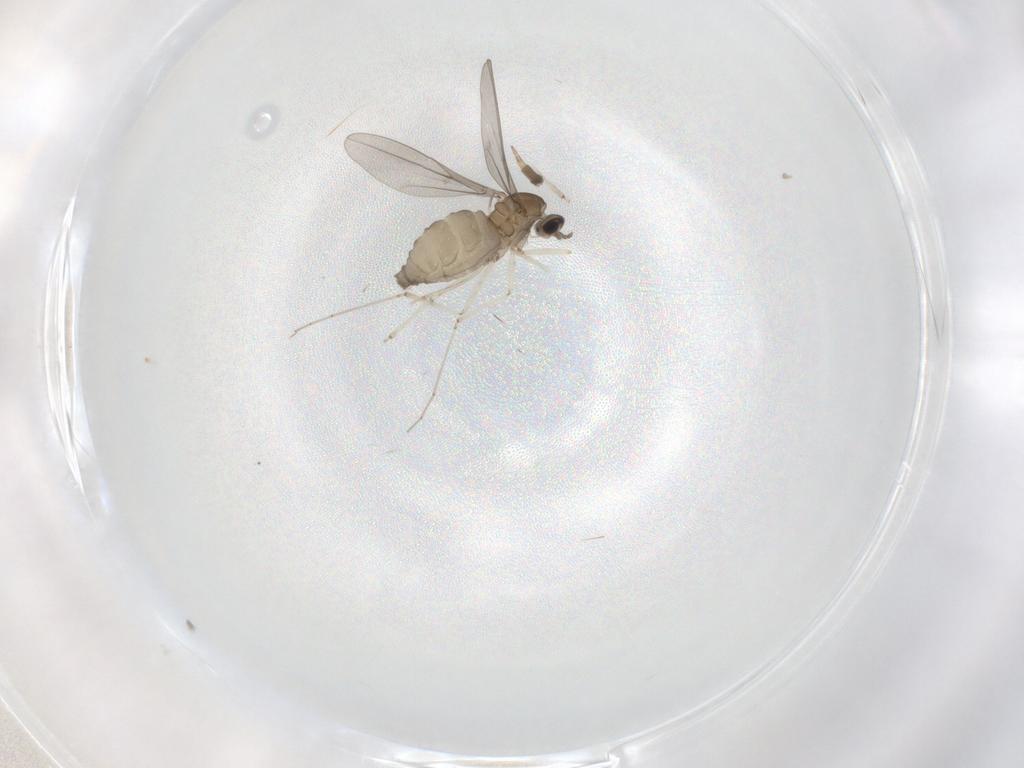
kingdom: Animalia
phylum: Arthropoda
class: Insecta
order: Diptera
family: Cecidomyiidae
